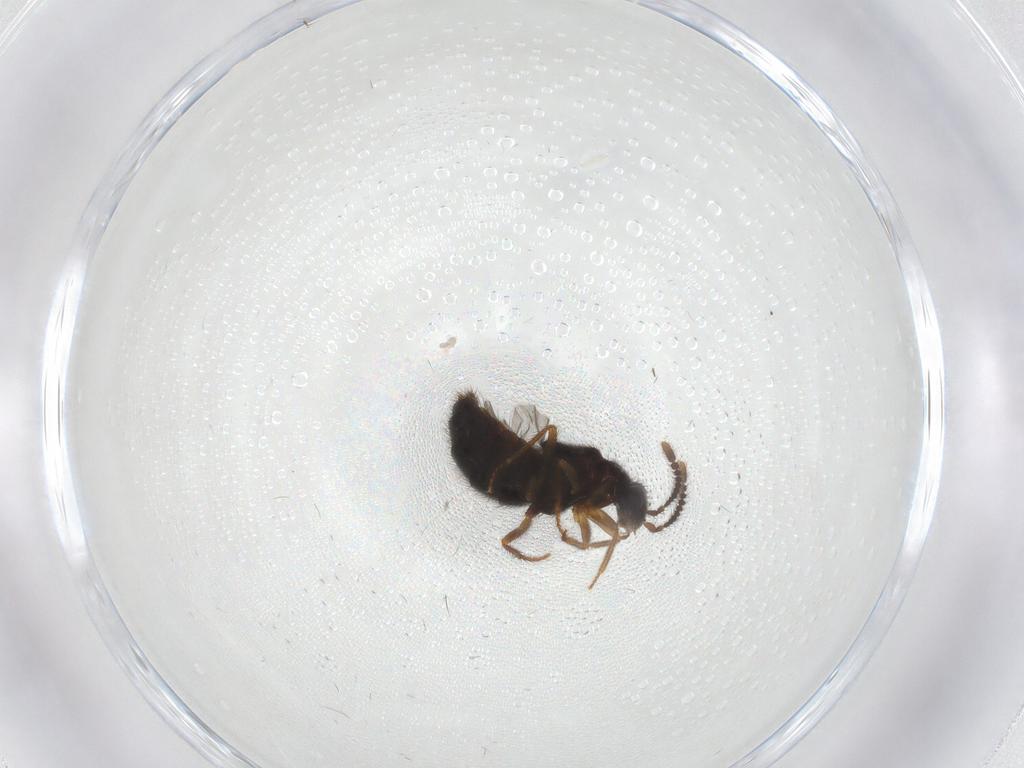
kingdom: Animalia
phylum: Arthropoda
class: Insecta
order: Coleoptera
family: Staphylinidae
